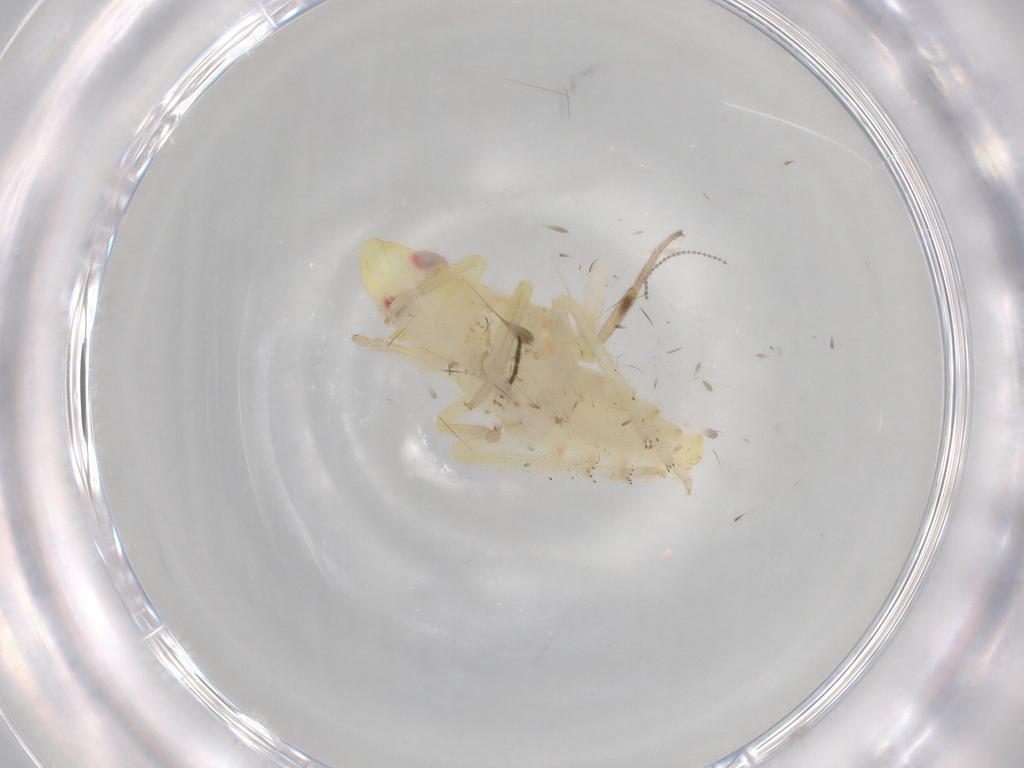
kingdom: Animalia
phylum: Arthropoda
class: Insecta
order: Hemiptera
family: Tropiduchidae
